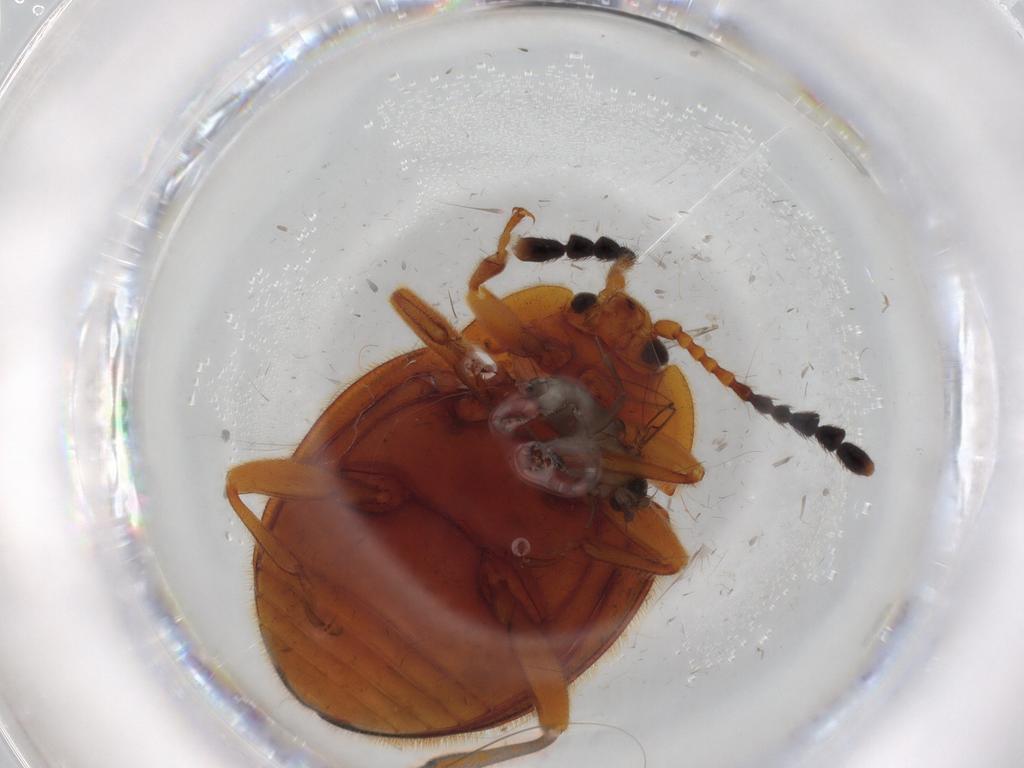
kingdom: Animalia
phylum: Arthropoda
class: Insecta
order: Coleoptera
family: Endomychidae
